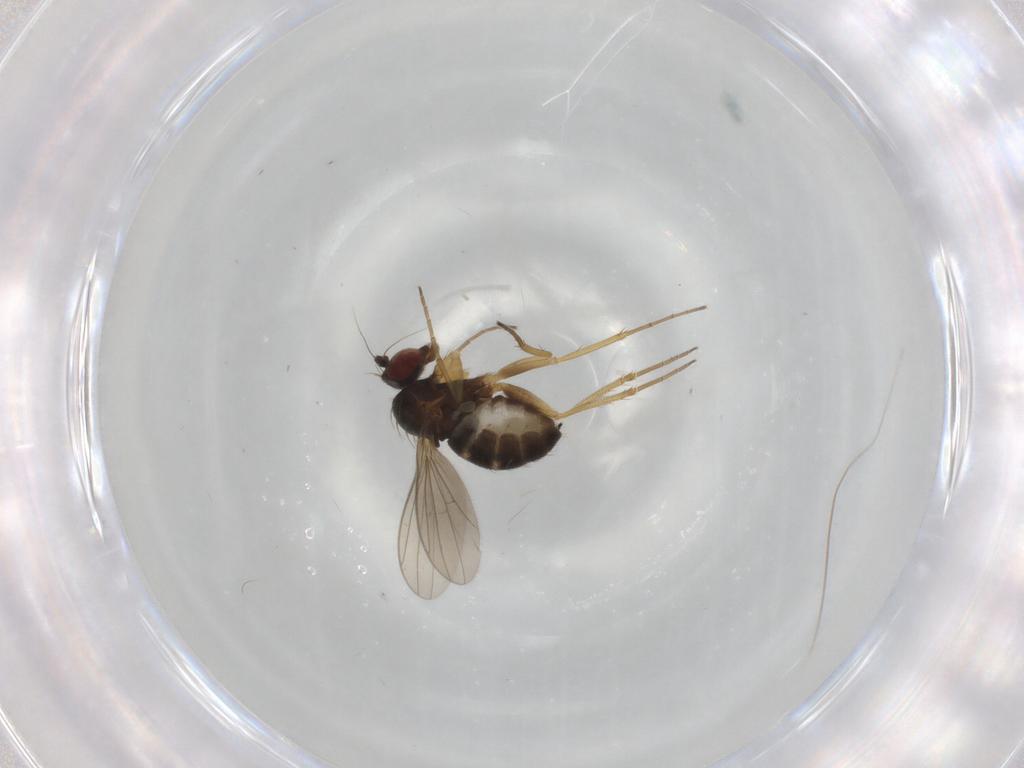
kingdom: Animalia
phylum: Arthropoda
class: Insecta
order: Diptera
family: Dolichopodidae
